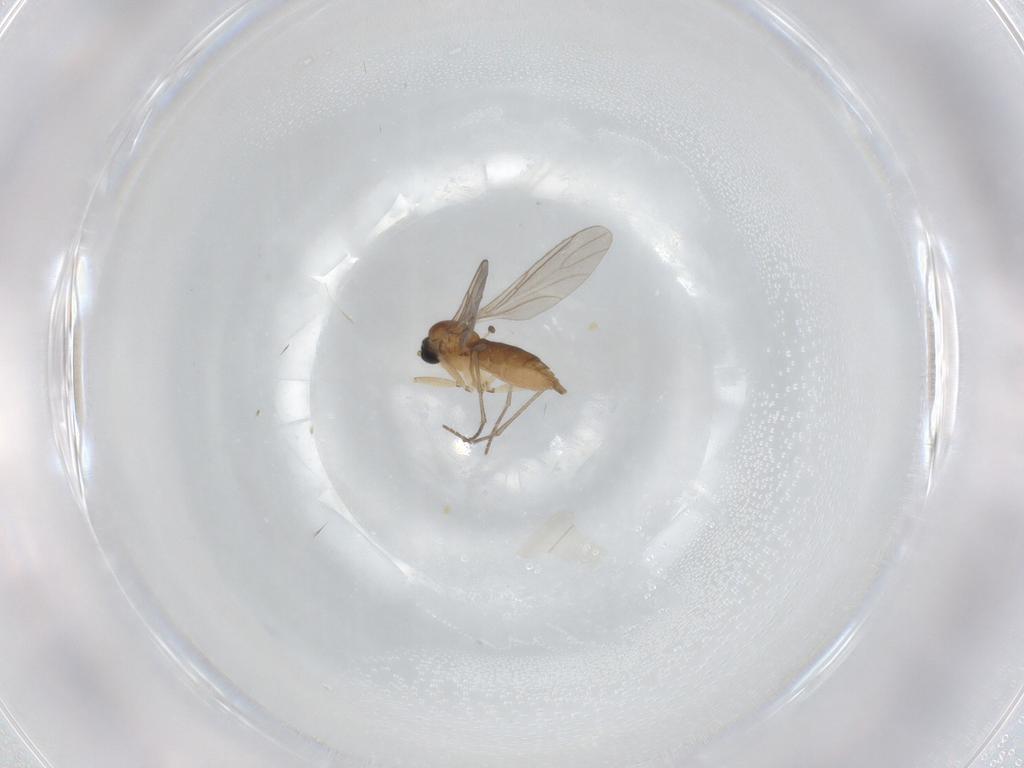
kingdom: Animalia
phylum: Arthropoda
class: Insecta
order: Diptera
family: Sciaridae
